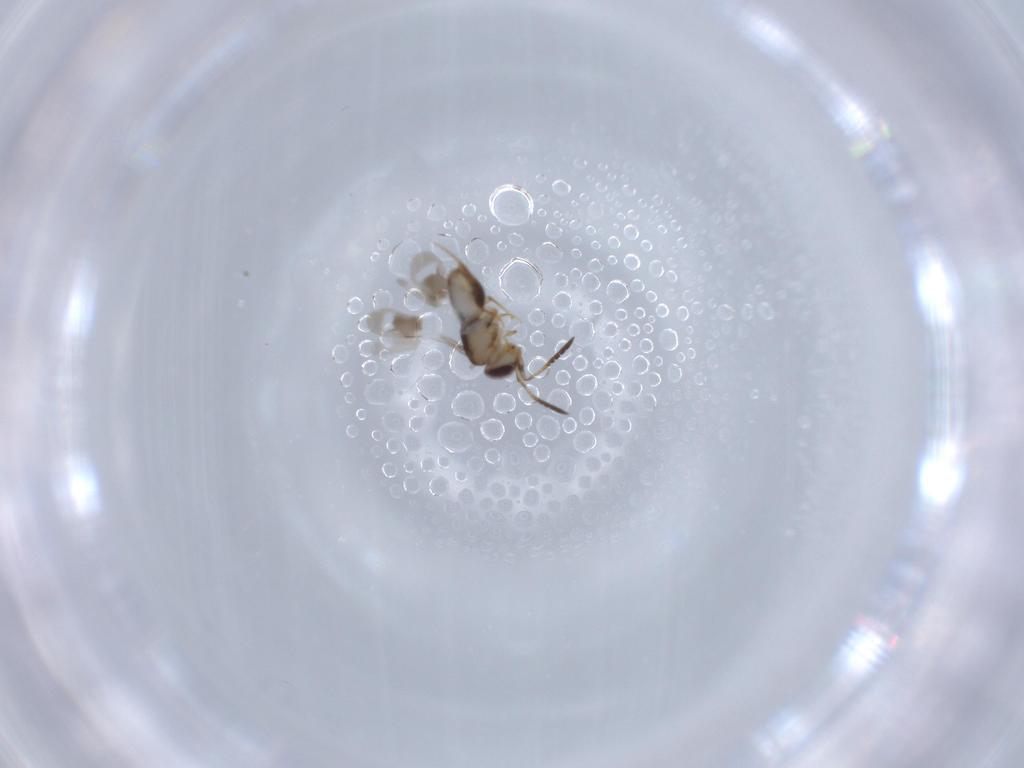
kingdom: Animalia
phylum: Arthropoda
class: Insecta
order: Hymenoptera
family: Ceraphronidae
